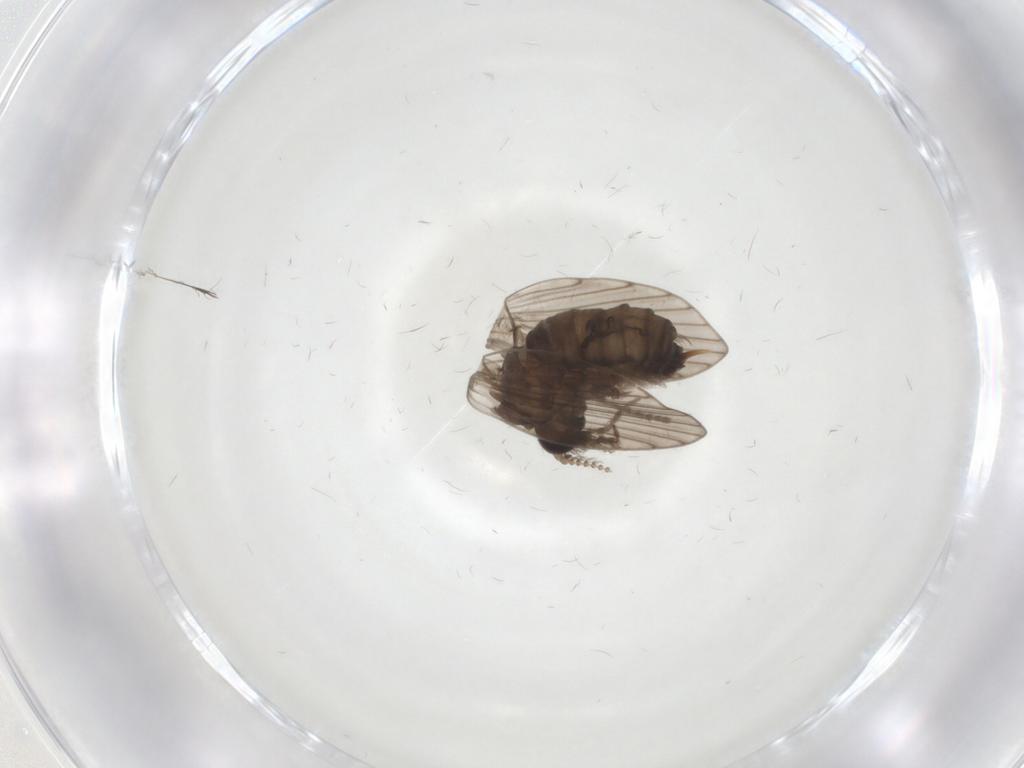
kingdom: Animalia
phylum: Arthropoda
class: Insecta
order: Diptera
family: Psychodidae
